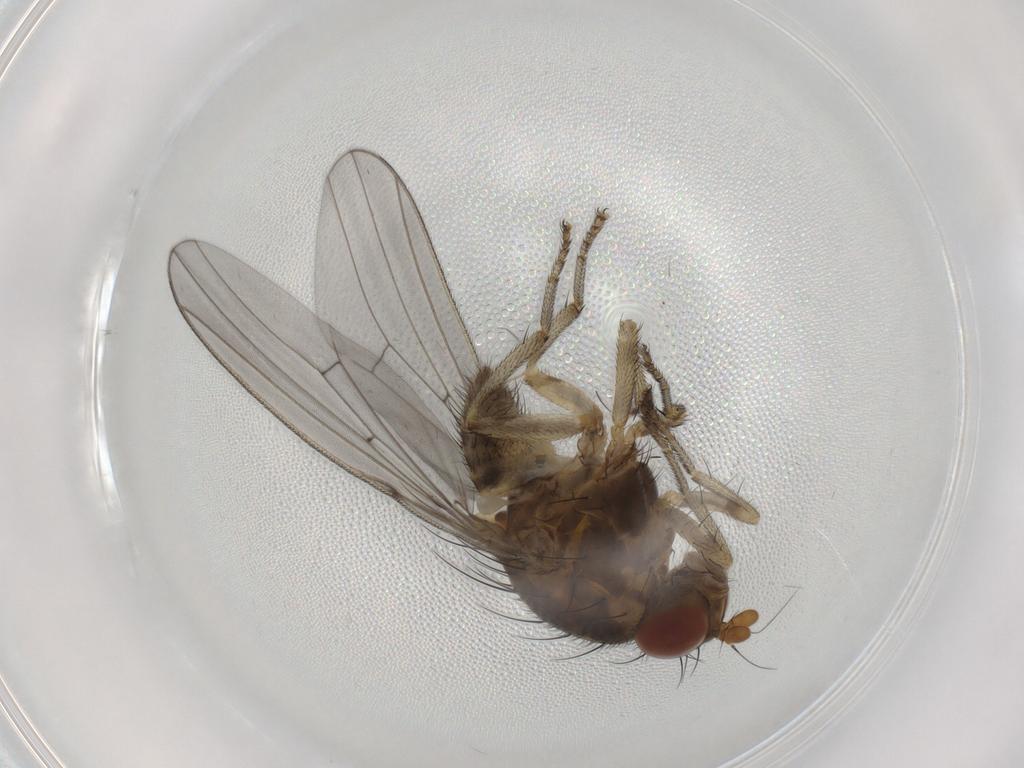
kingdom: Animalia
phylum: Arthropoda
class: Insecta
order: Diptera
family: Lauxaniidae
